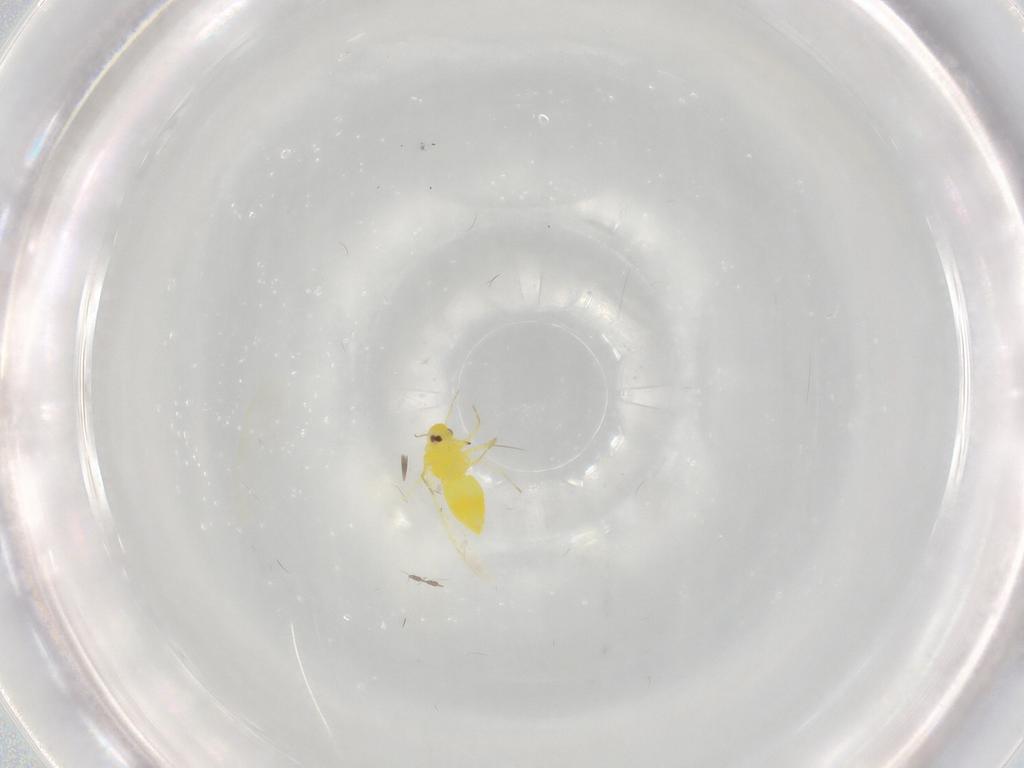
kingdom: Animalia
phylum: Arthropoda
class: Insecta
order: Hemiptera
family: Aleyrodidae
